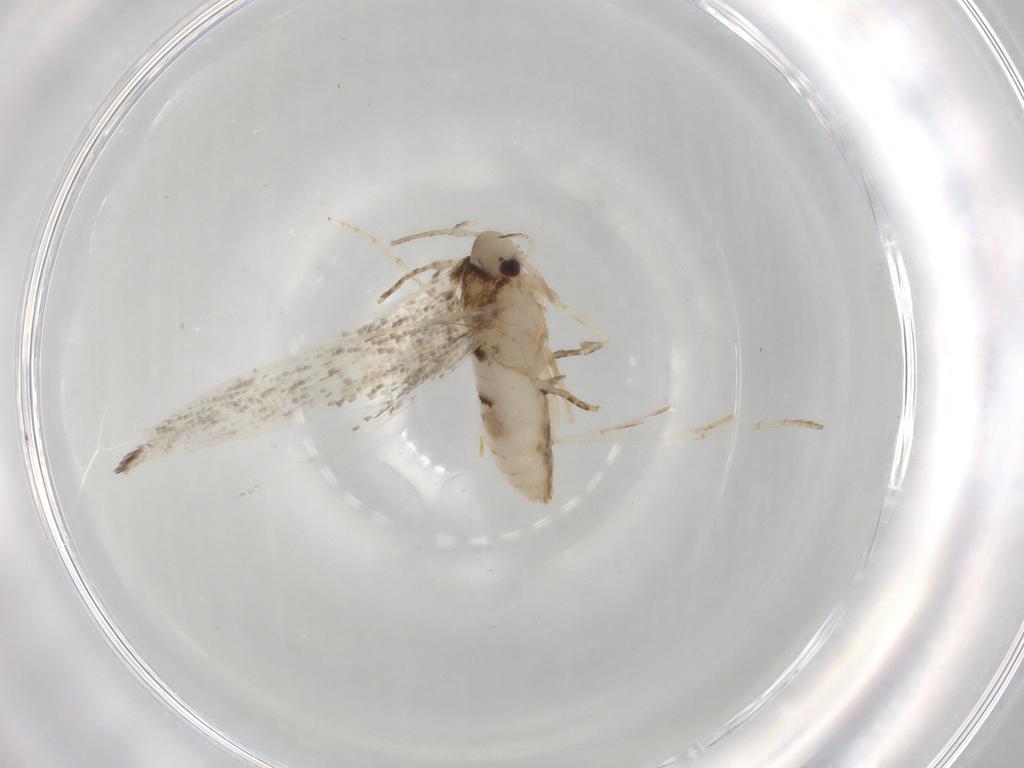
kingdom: Animalia
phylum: Arthropoda
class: Insecta
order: Lepidoptera
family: Cosmopterigidae
